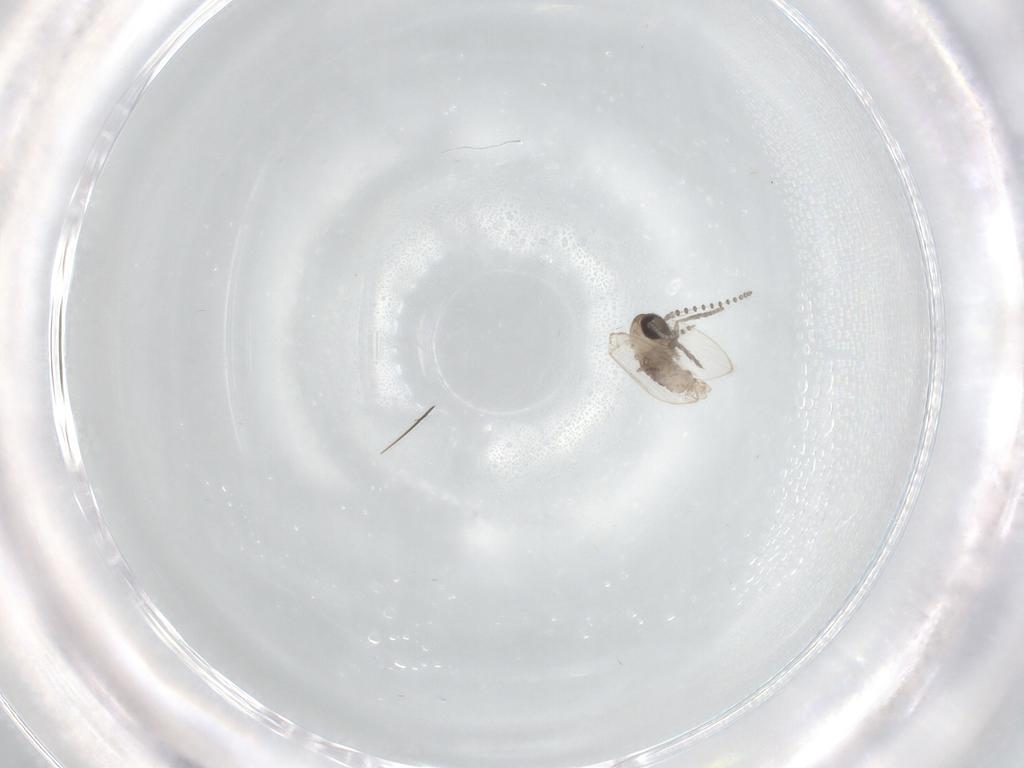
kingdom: Animalia
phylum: Arthropoda
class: Insecta
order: Diptera
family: Psychodidae
